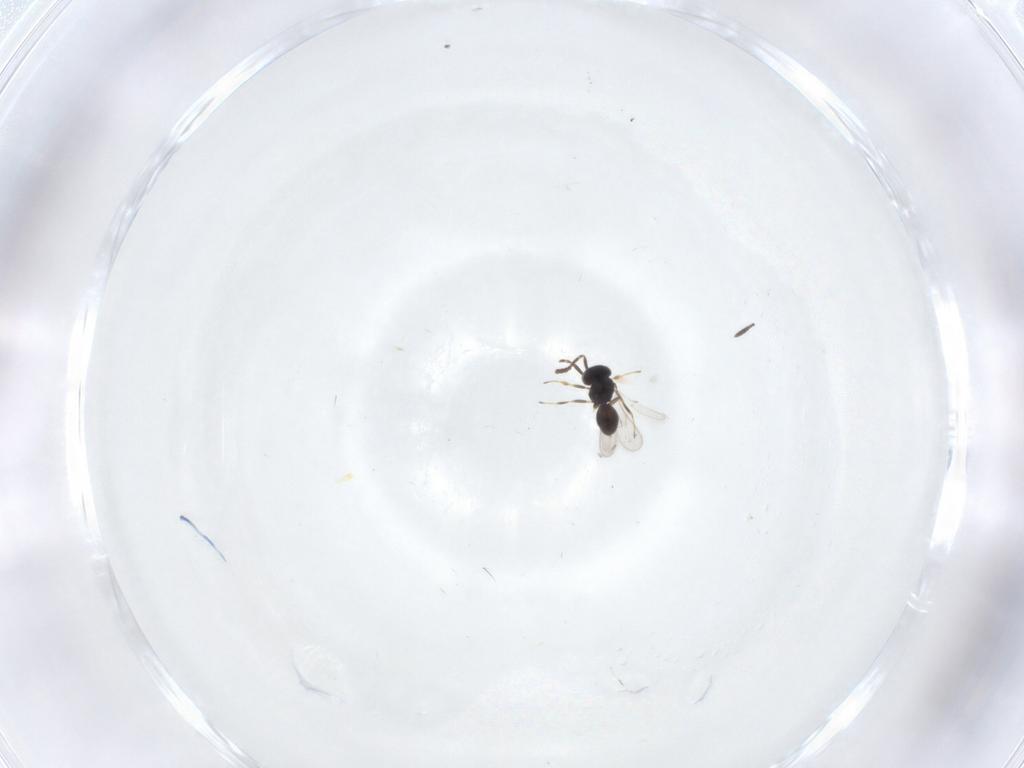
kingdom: Animalia
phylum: Arthropoda
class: Insecta
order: Hymenoptera
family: Scelionidae
